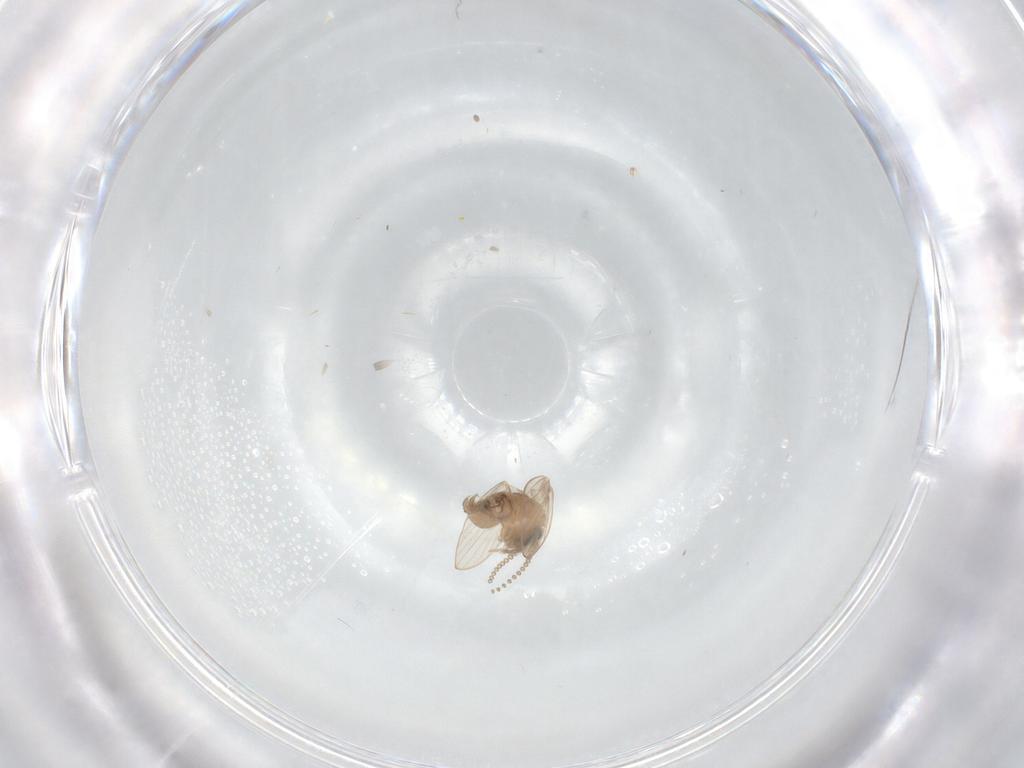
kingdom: Animalia
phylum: Arthropoda
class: Insecta
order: Diptera
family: Psychodidae
